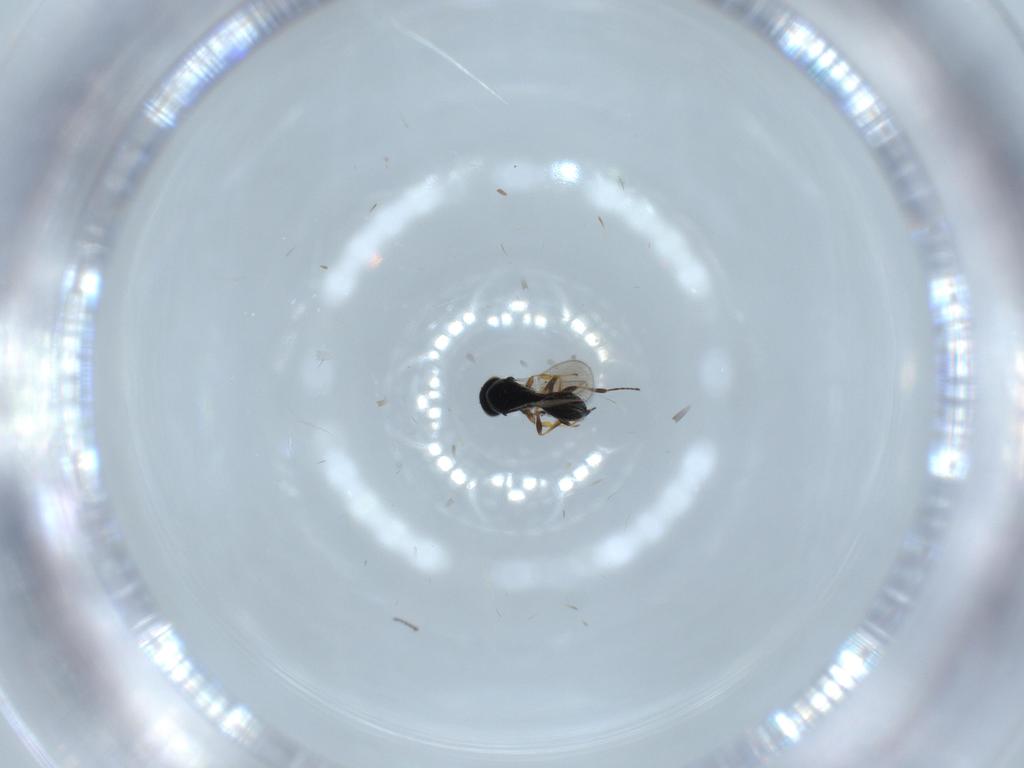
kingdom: Animalia
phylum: Arthropoda
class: Insecta
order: Hymenoptera
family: Platygastridae
